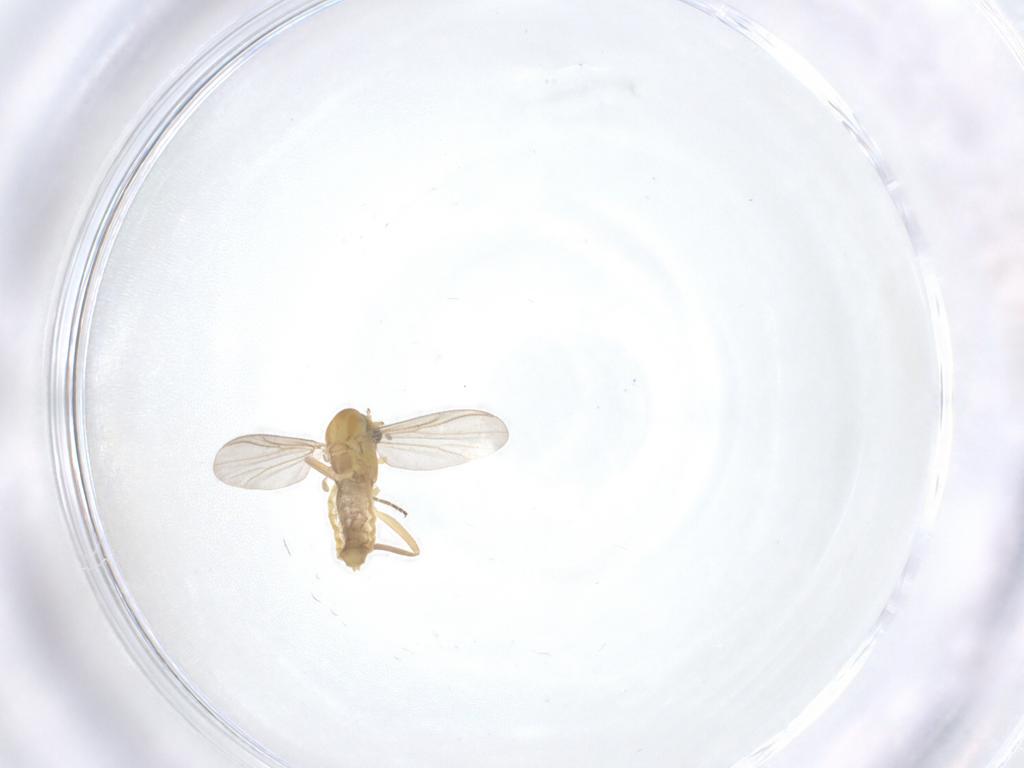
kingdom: Animalia
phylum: Arthropoda
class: Insecta
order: Diptera
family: Chironomidae
